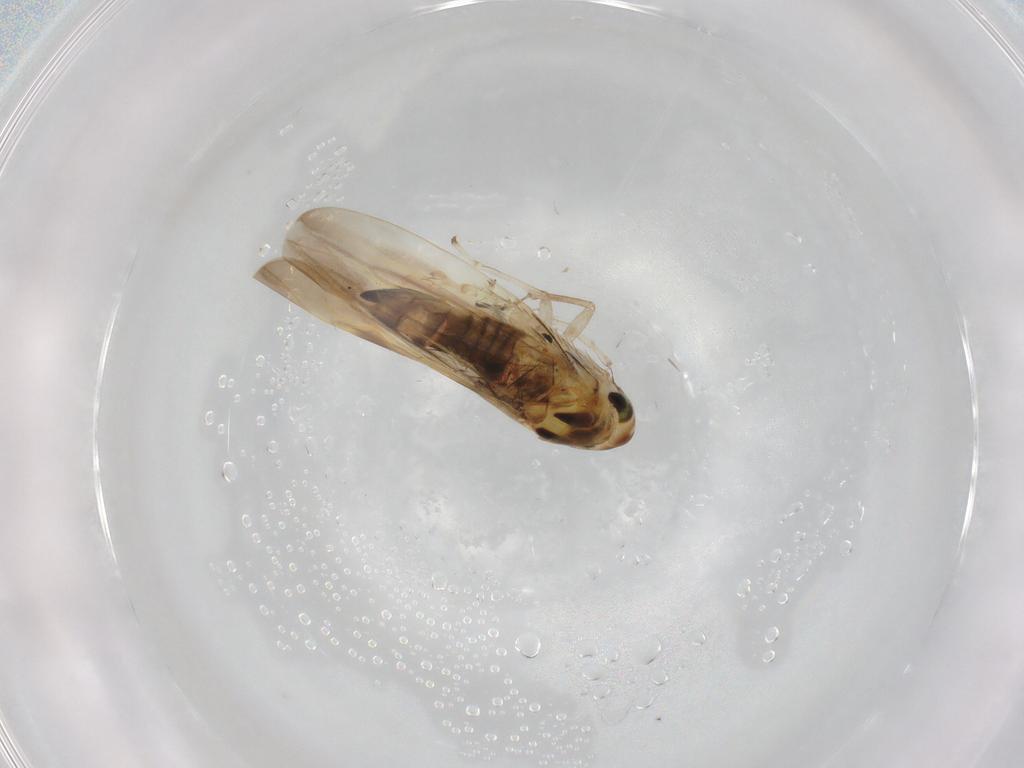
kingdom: Animalia
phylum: Arthropoda
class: Insecta
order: Hemiptera
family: Cicadellidae
